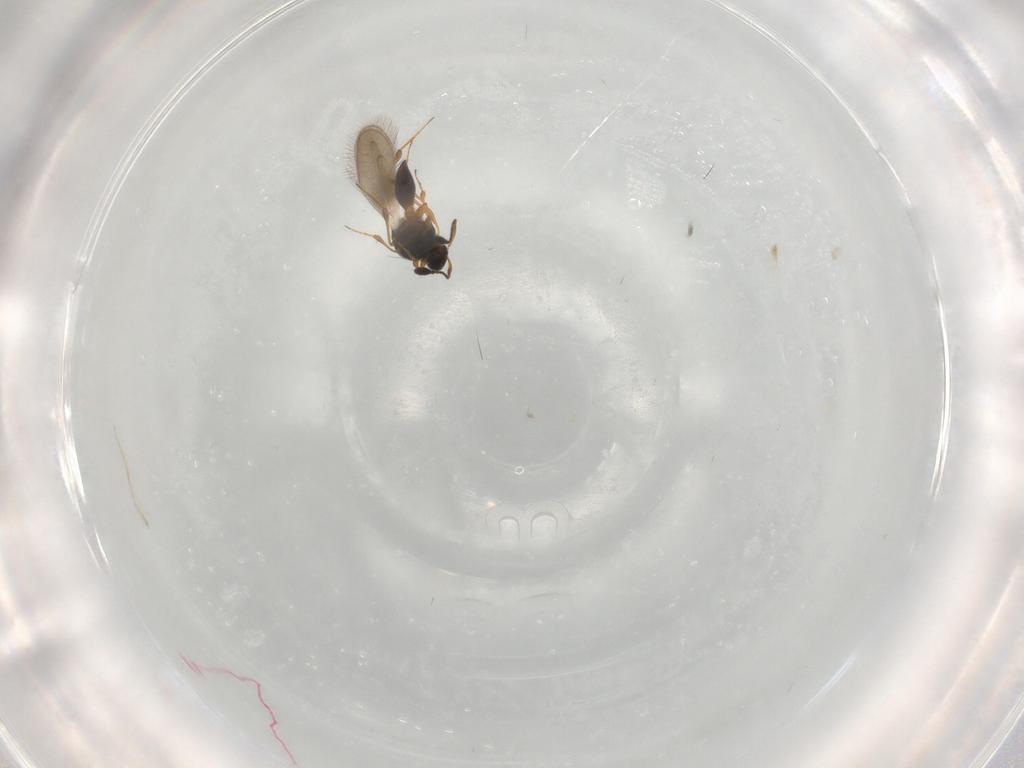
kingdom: Animalia
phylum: Arthropoda
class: Insecta
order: Hymenoptera
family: Platygastridae
